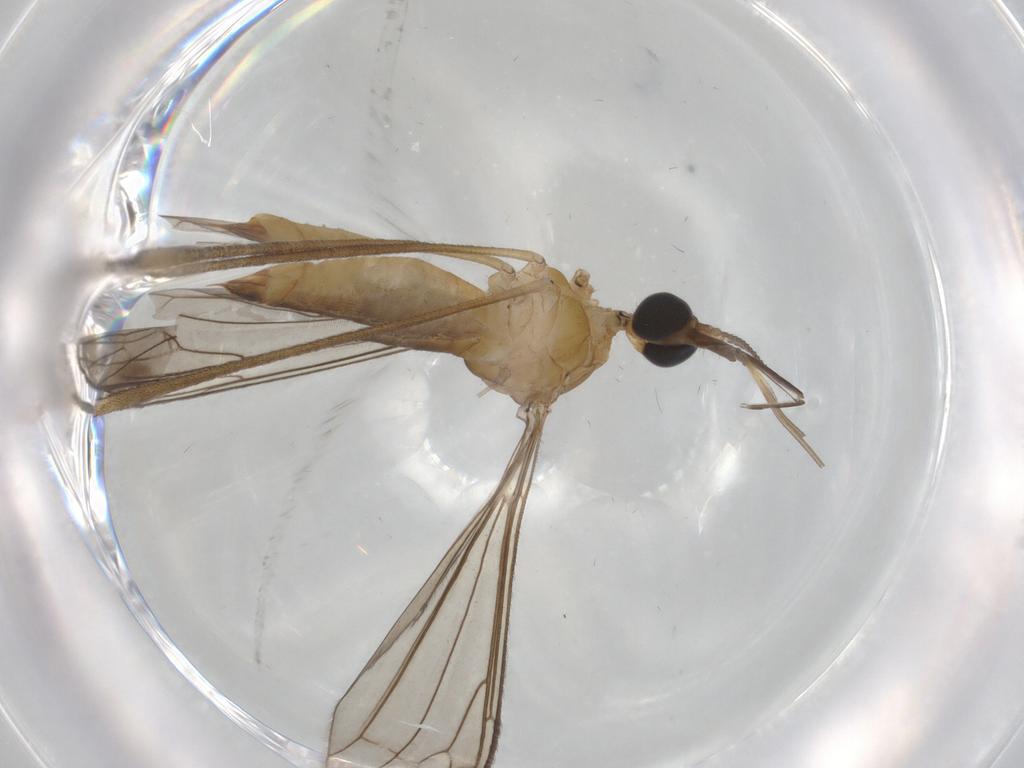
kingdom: Animalia
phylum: Arthropoda
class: Insecta
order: Diptera
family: Limoniidae
